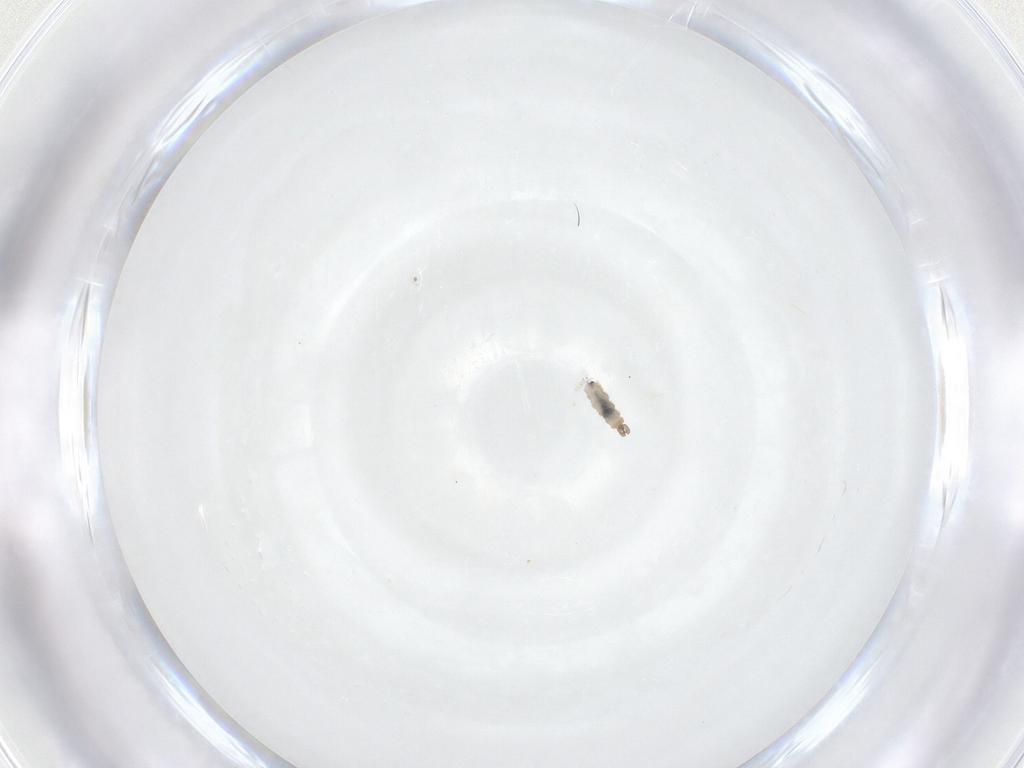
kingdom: Animalia
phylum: Arthropoda
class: Insecta
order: Diptera
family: Cecidomyiidae
